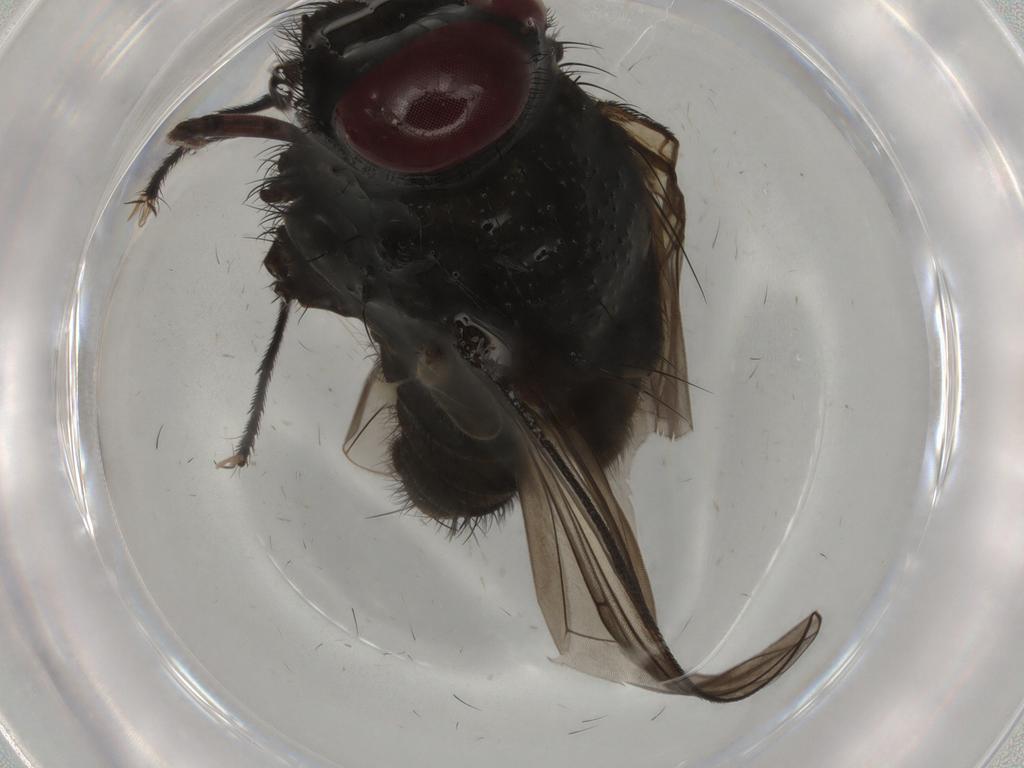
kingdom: Animalia
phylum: Arthropoda
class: Insecta
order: Diptera
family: Muscidae
